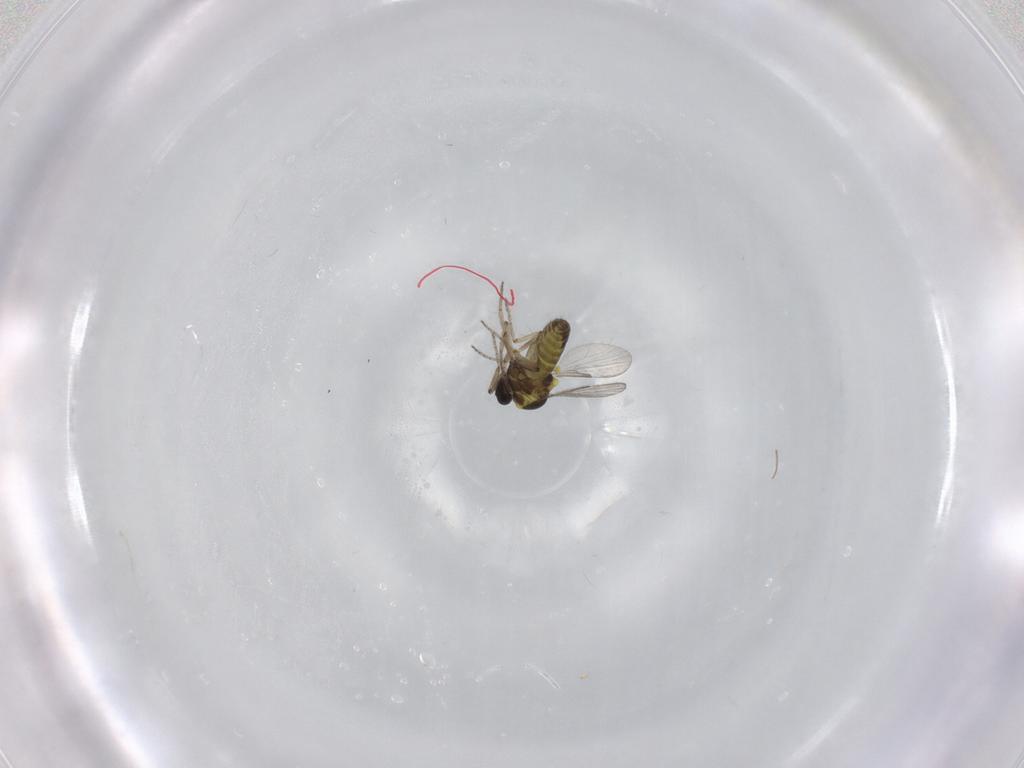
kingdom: Animalia
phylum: Arthropoda
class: Insecta
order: Diptera
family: Ceratopogonidae
